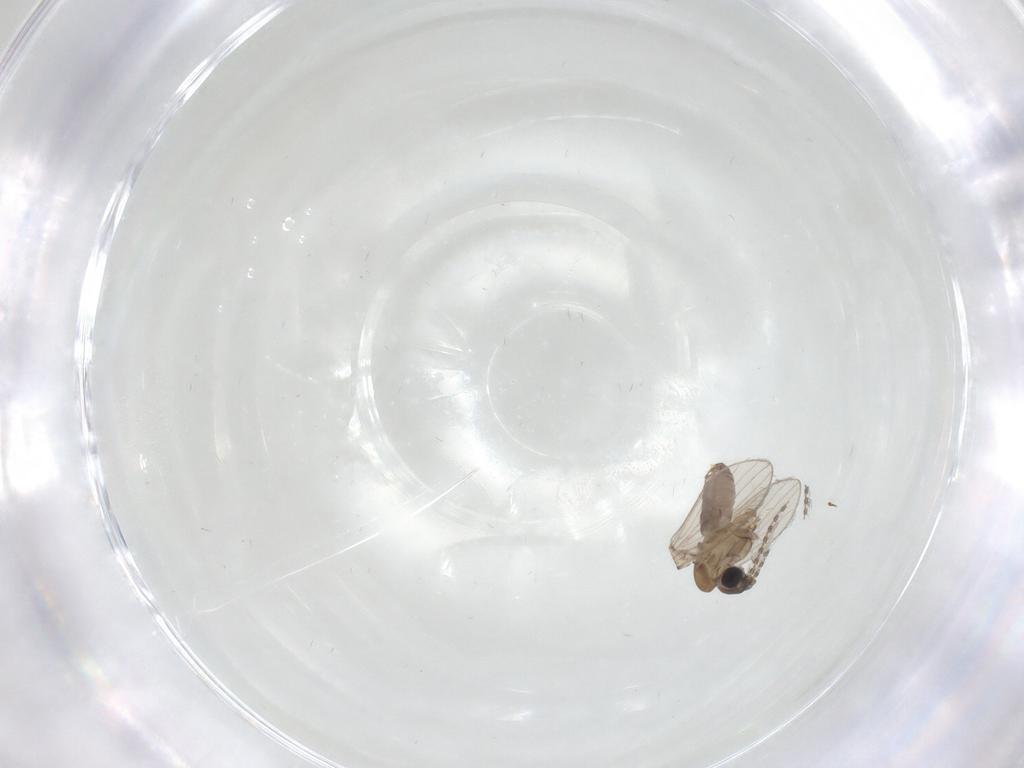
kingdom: Animalia
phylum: Arthropoda
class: Insecta
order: Diptera
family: Psychodidae
